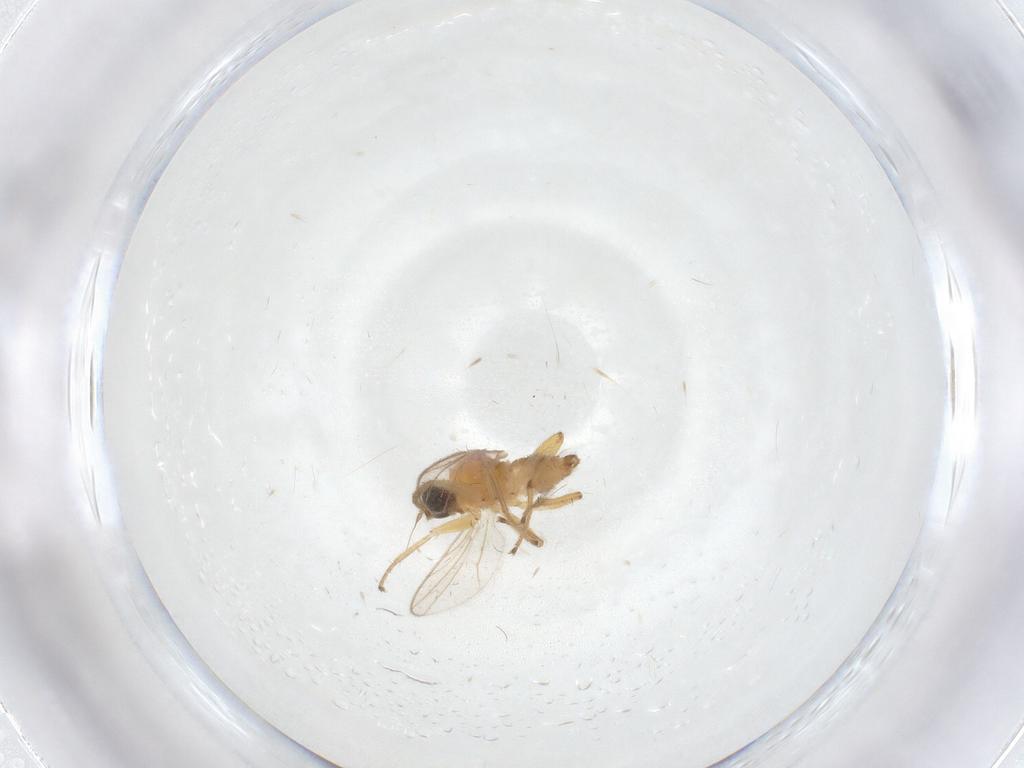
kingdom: Animalia
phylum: Arthropoda
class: Insecta
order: Diptera
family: Hybotidae
